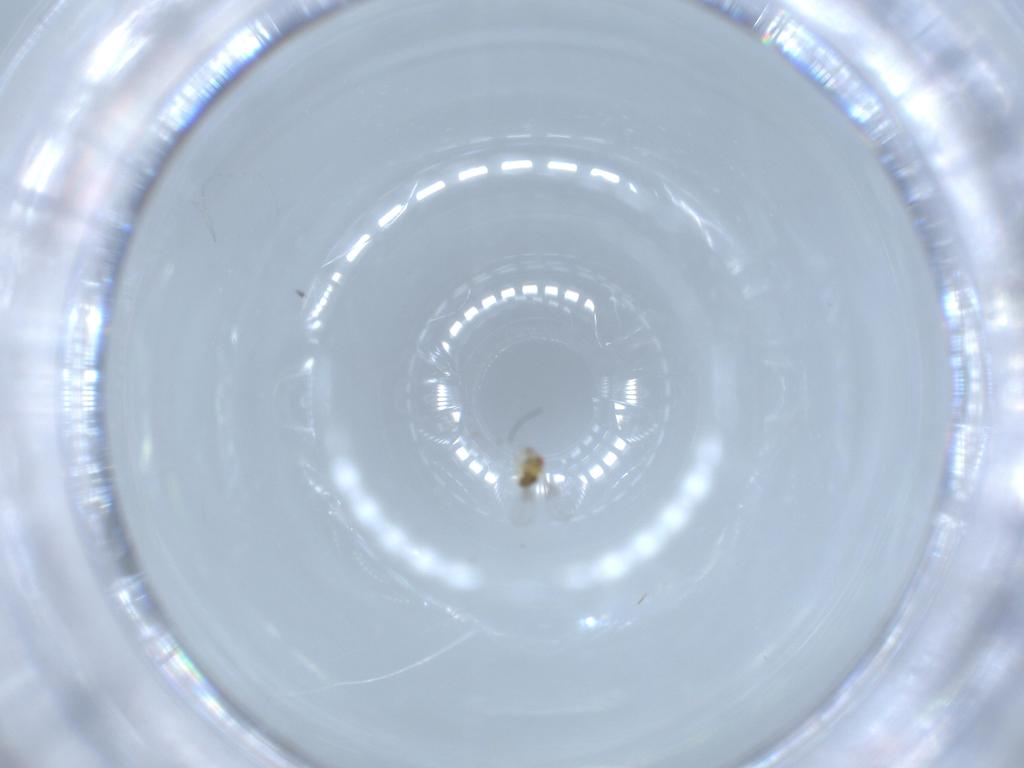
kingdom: Animalia
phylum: Arthropoda
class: Insecta
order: Hymenoptera
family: Trichogrammatidae
